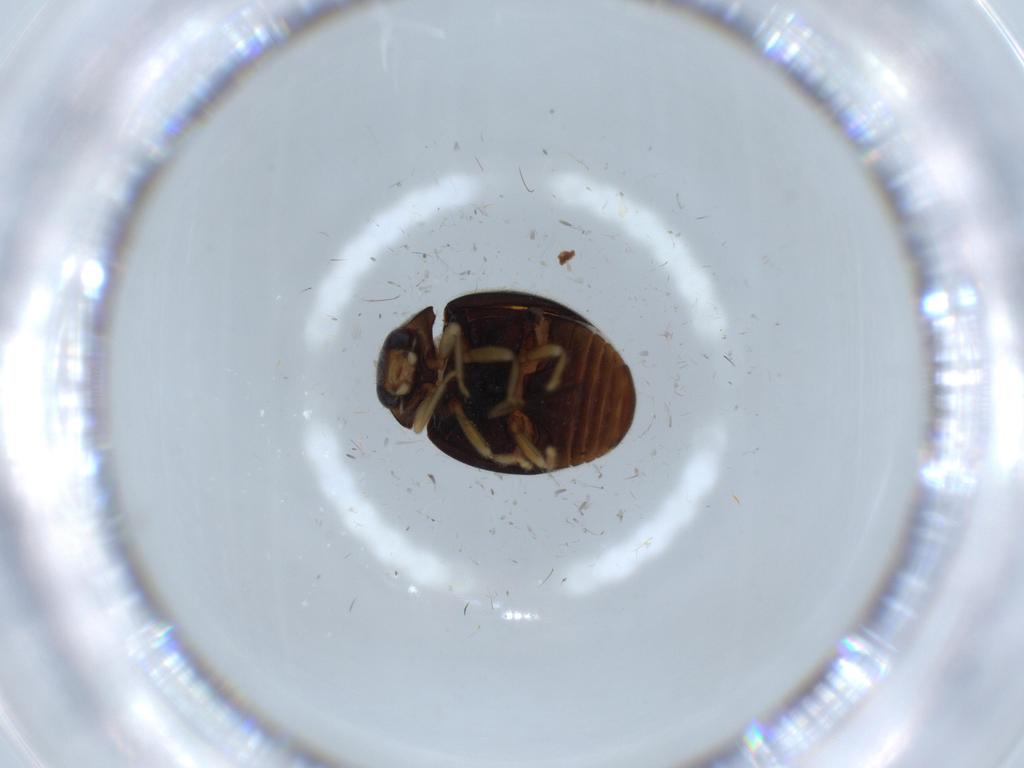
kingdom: Animalia
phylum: Arthropoda
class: Insecta
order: Coleoptera
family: Coccinellidae
